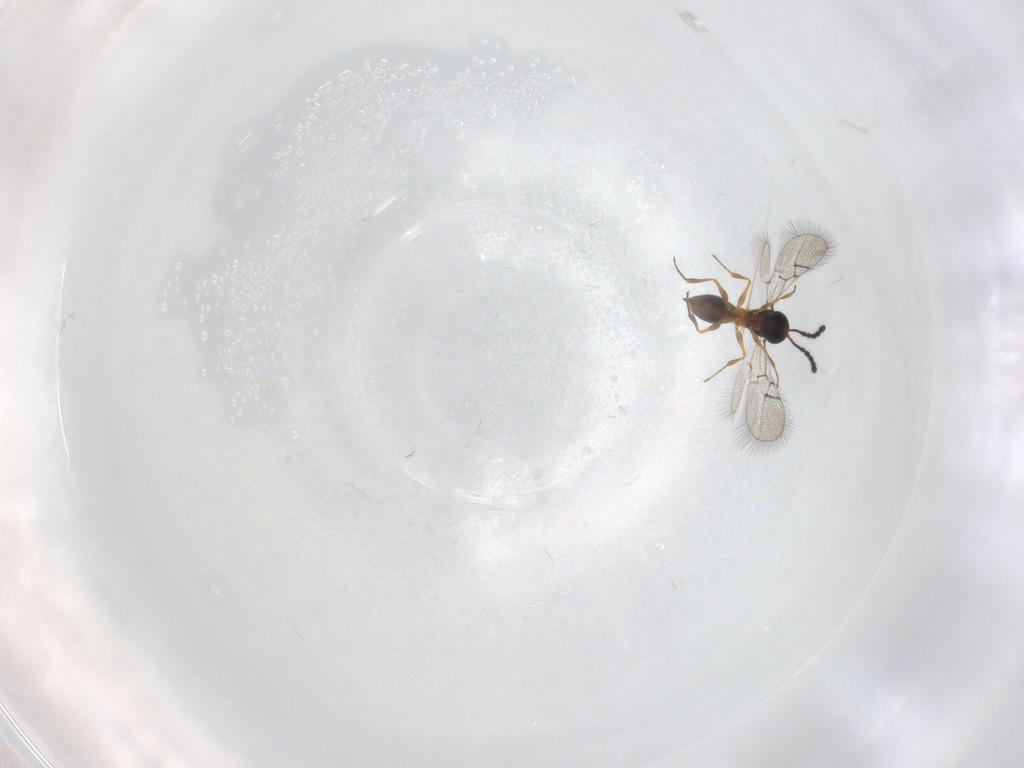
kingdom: Animalia
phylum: Arthropoda
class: Insecta
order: Hymenoptera
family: Figitidae
